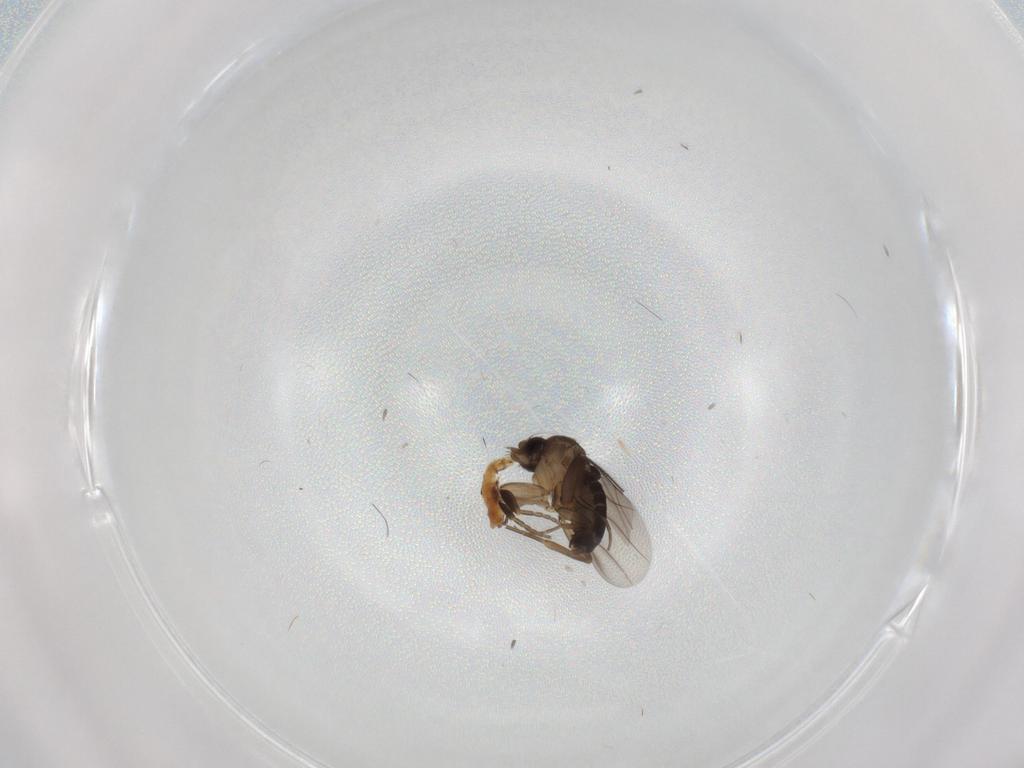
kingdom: Animalia
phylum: Arthropoda
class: Insecta
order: Diptera
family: Phoridae
